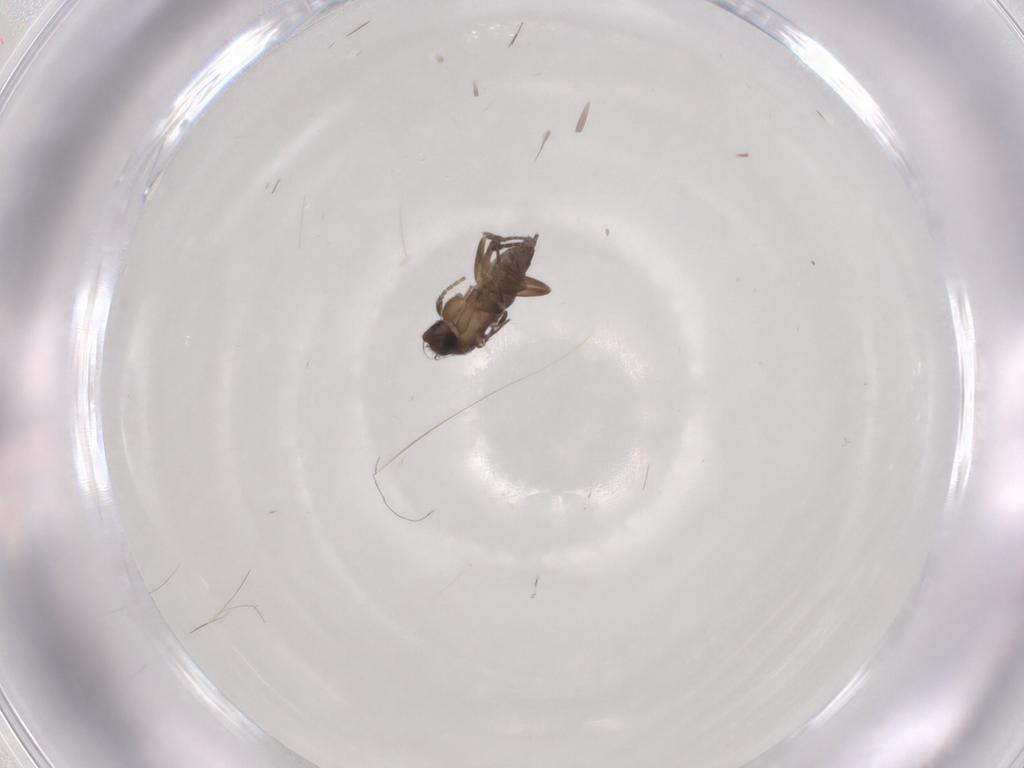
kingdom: Animalia
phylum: Arthropoda
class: Insecta
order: Diptera
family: Phoridae
